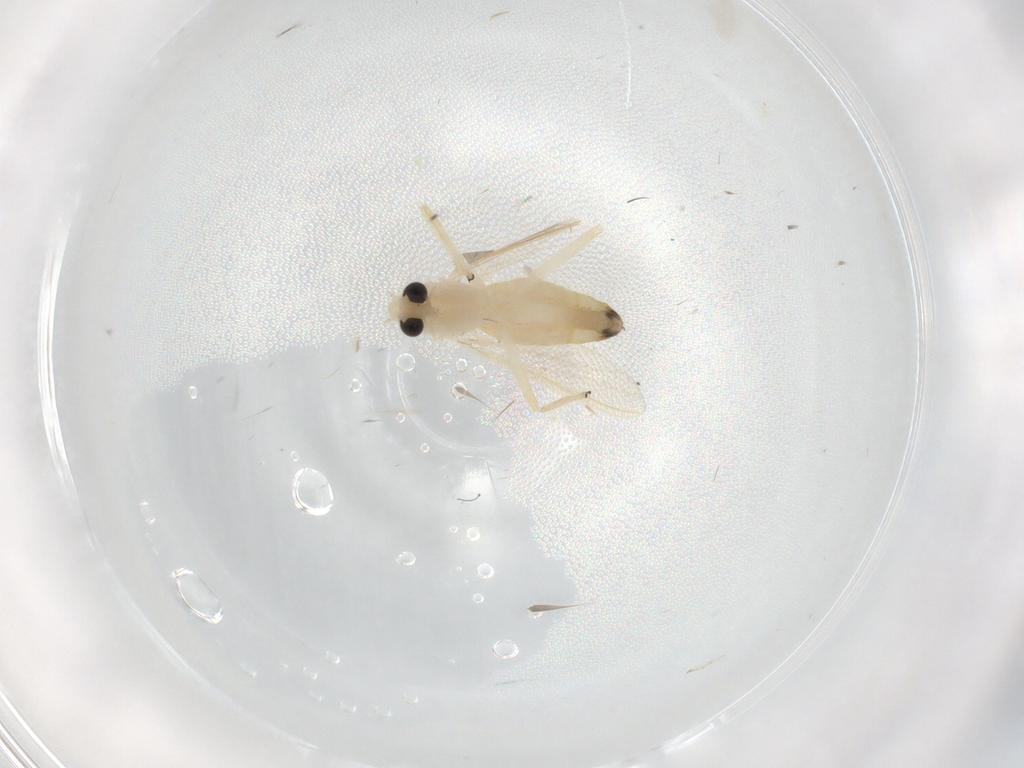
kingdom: Animalia
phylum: Arthropoda
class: Insecta
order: Diptera
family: Chironomidae
